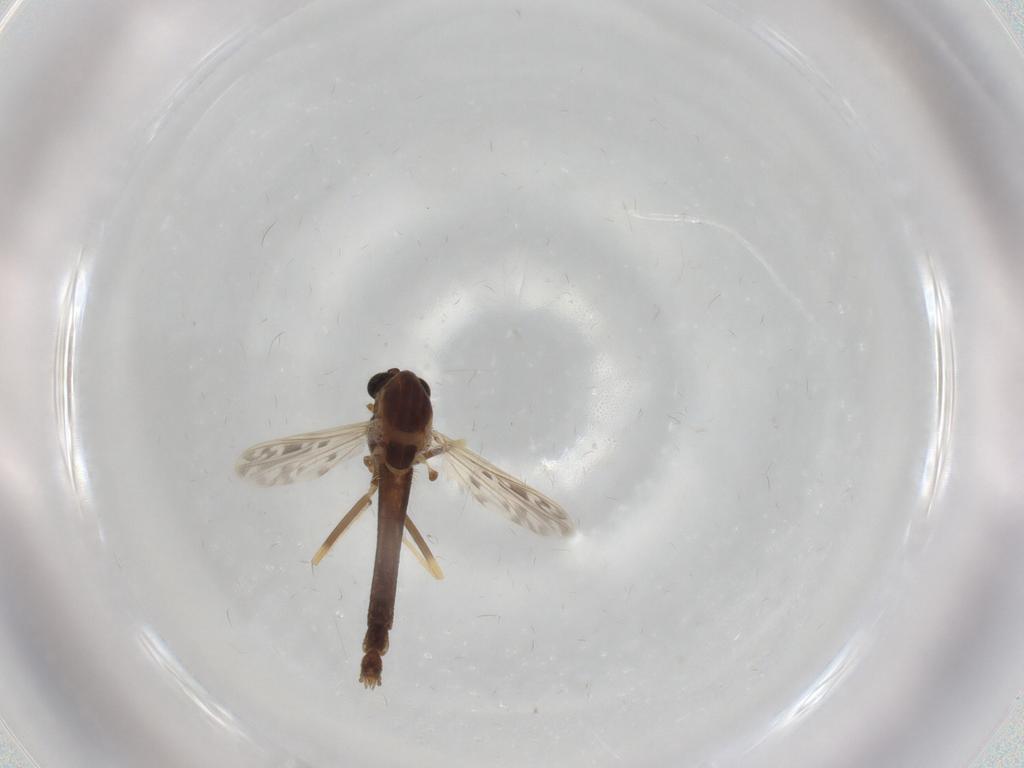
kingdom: Animalia
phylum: Arthropoda
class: Insecta
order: Diptera
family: Chironomidae
